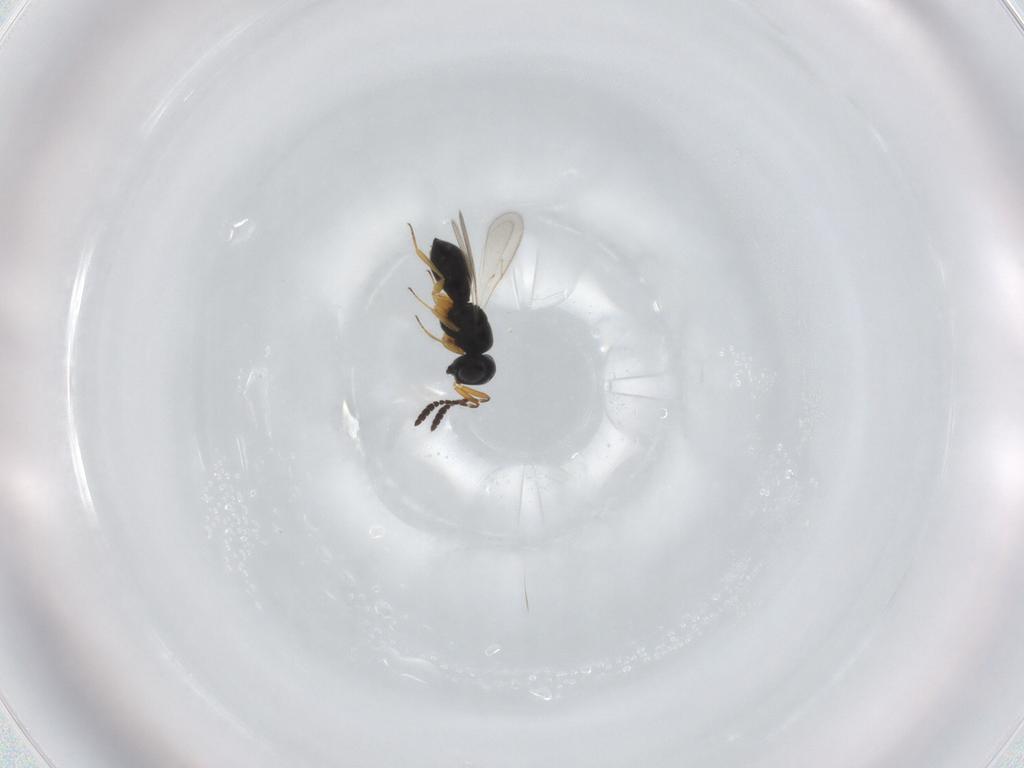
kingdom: Animalia
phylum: Arthropoda
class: Insecta
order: Hymenoptera
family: Scelionidae
